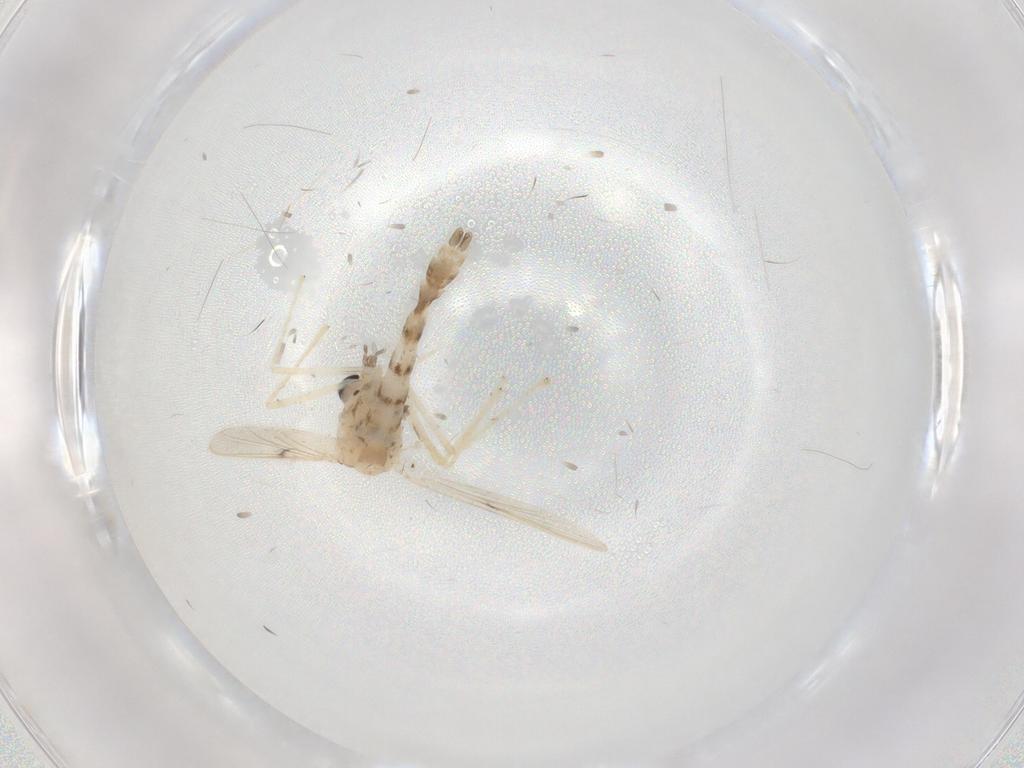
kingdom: Animalia
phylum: Arthropoda
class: Insecta
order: Diptera
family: Chironomidae
